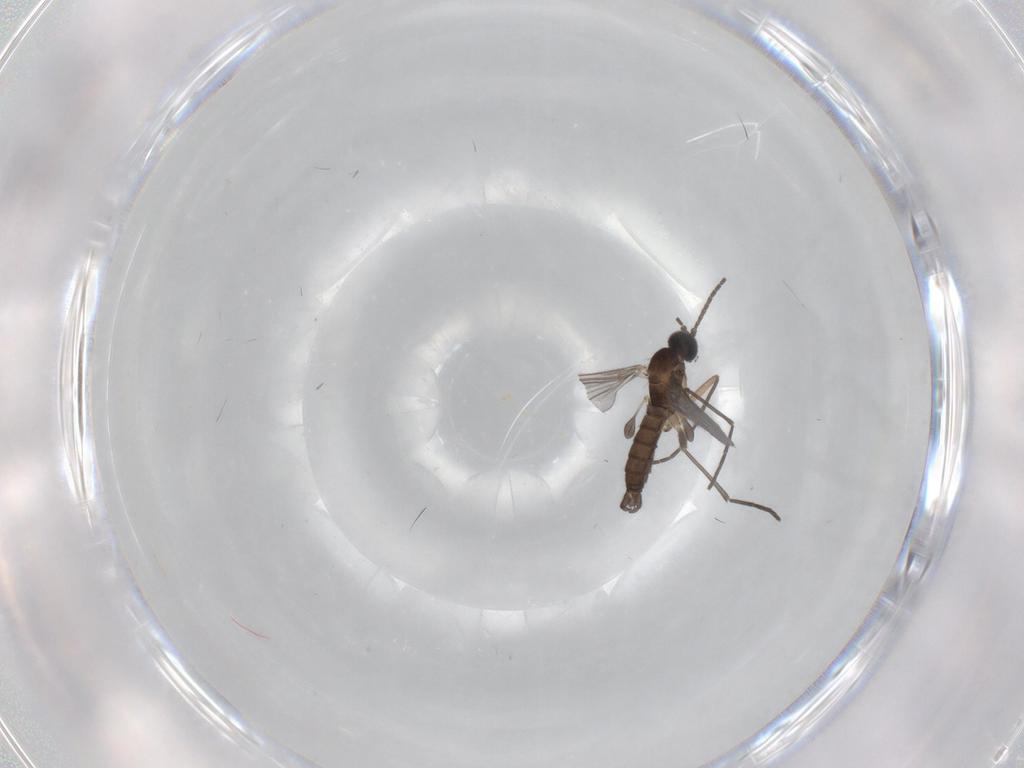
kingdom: Animalia
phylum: Arthropoda
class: Insecta
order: Diptera
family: Sciaridae
